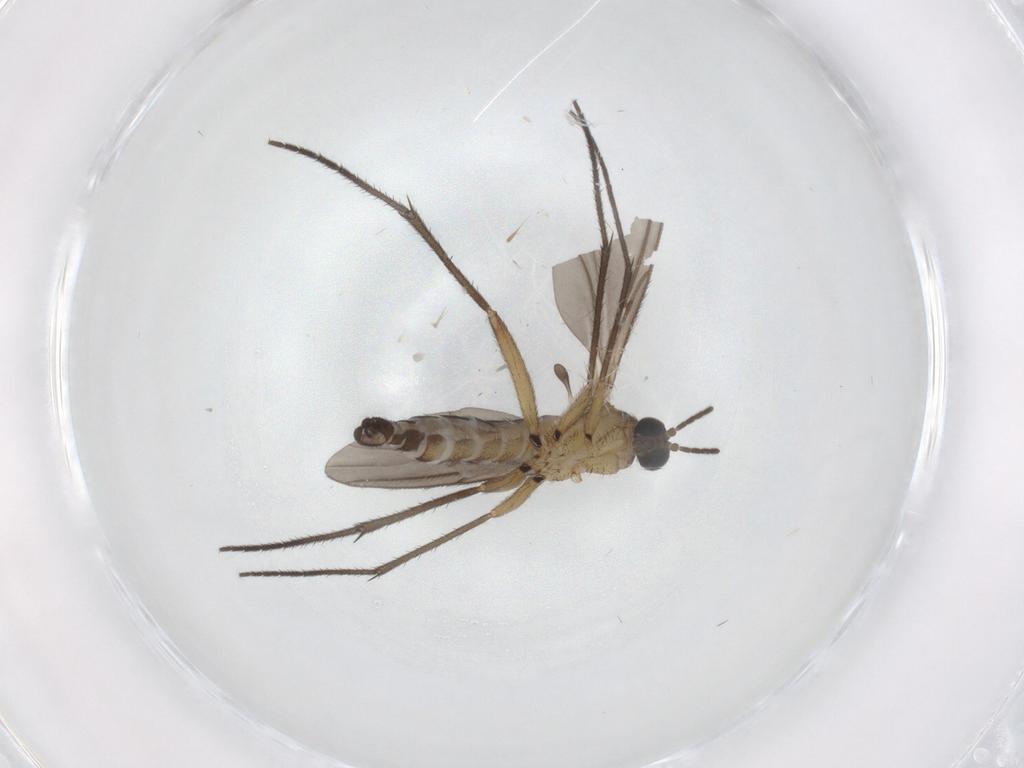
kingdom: Animalia
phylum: Arthropoda
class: Insecta
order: Diptera
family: Sciaridae
